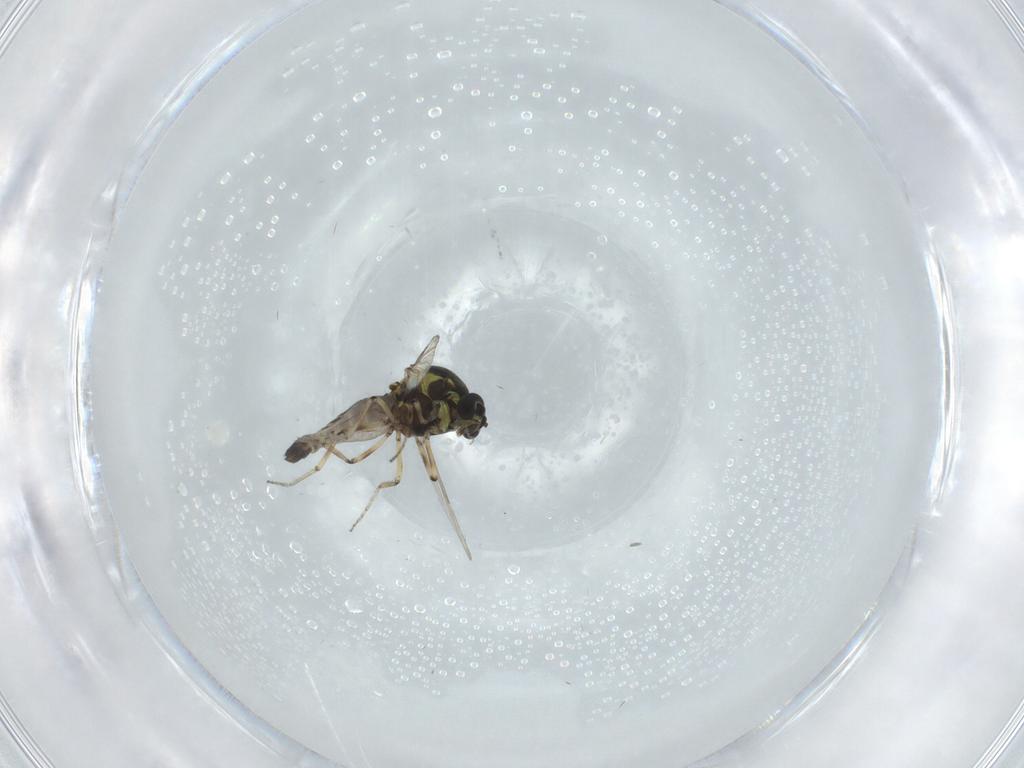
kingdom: Animalia
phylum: Arthropoda
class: Insecta
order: Diptera
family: Ceratopogonidae
